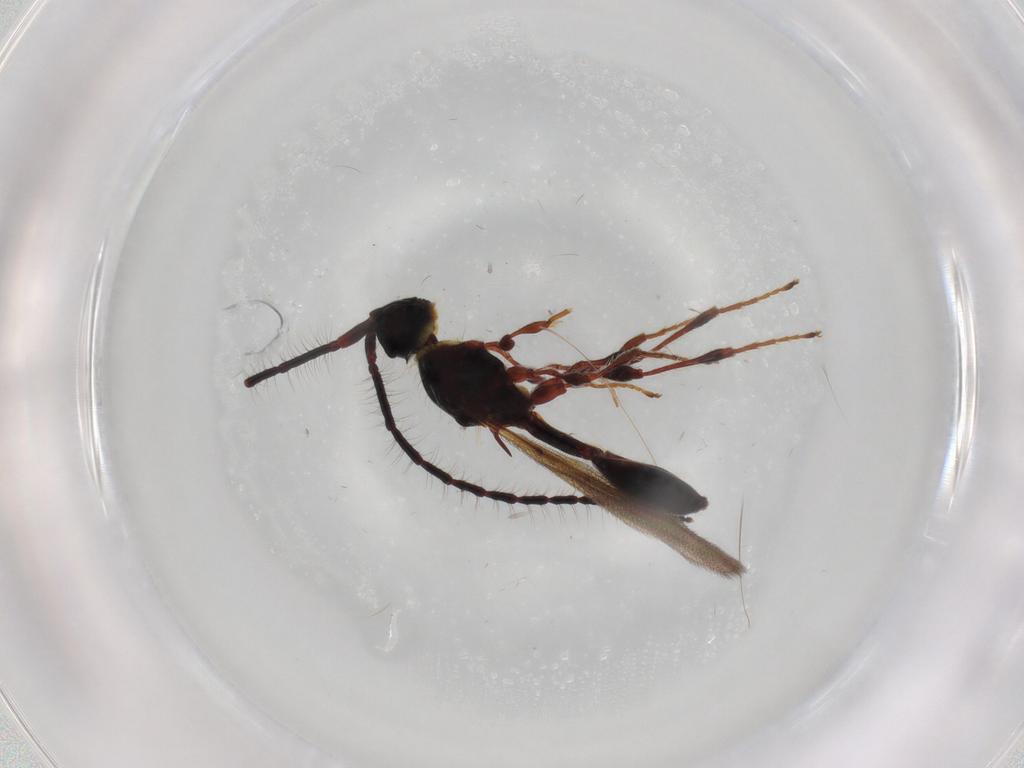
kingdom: Animalia
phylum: Arthropoda
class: Insecta
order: Hymenoptera
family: Diapriidae
